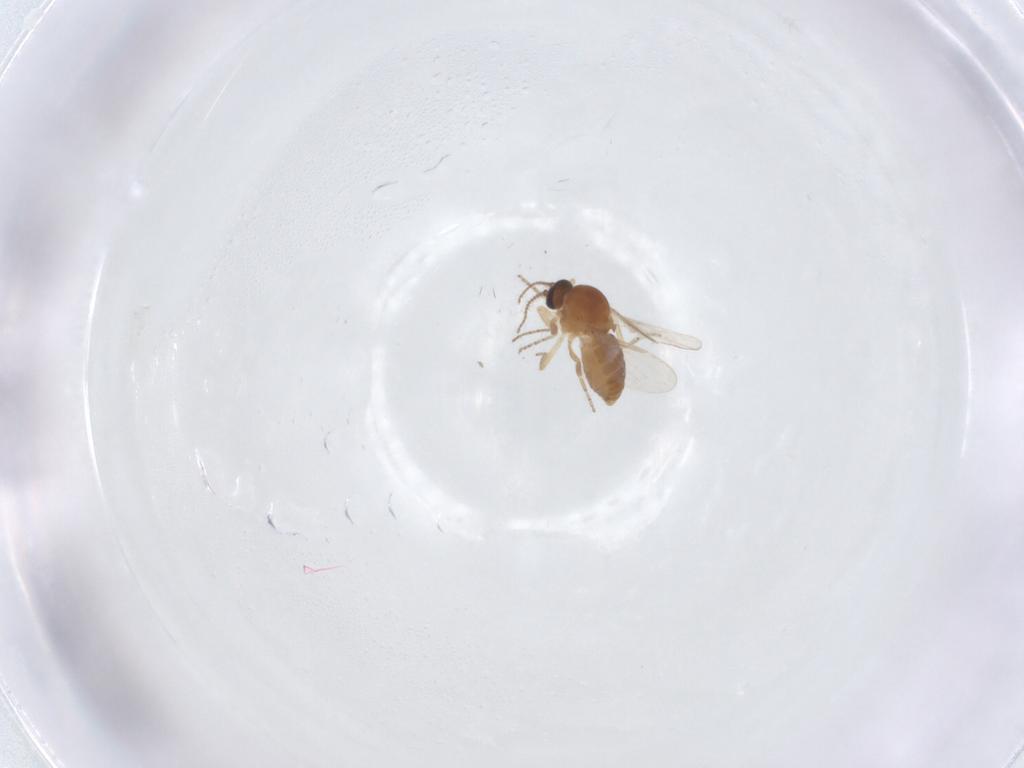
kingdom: Animalia
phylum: Arthropoda
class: Insecta
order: Diptera
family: Ceratopogonidae
